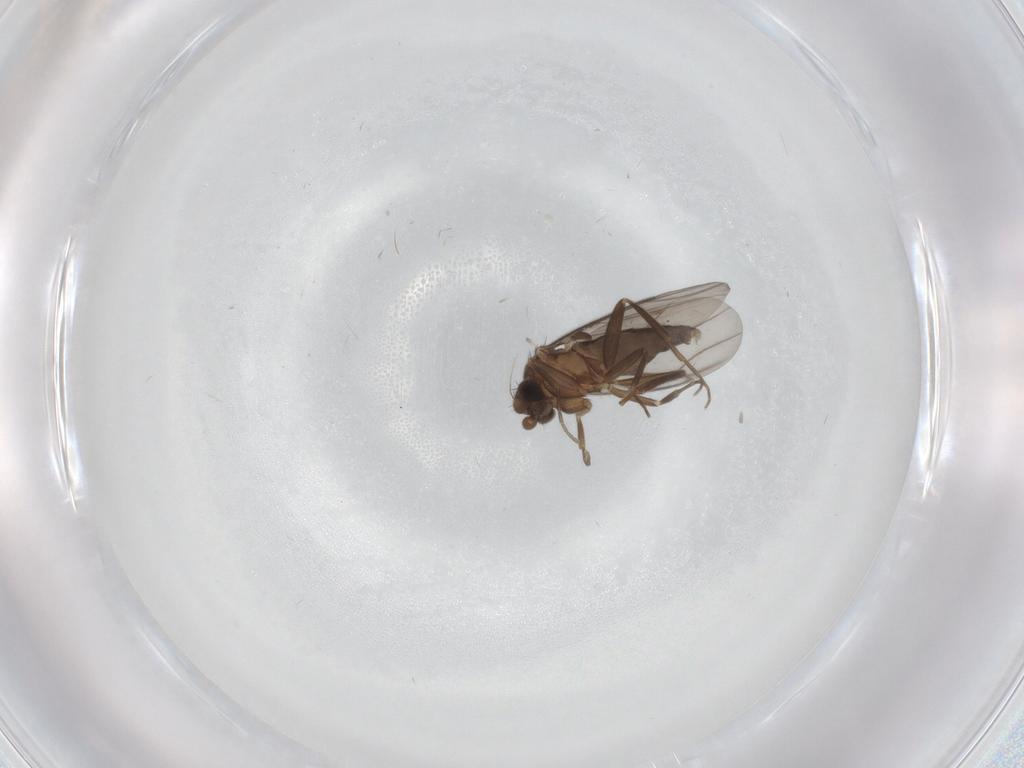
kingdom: Animalia
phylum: Arthropoda
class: Insecta
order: Diptera
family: Cecidomyiidae
